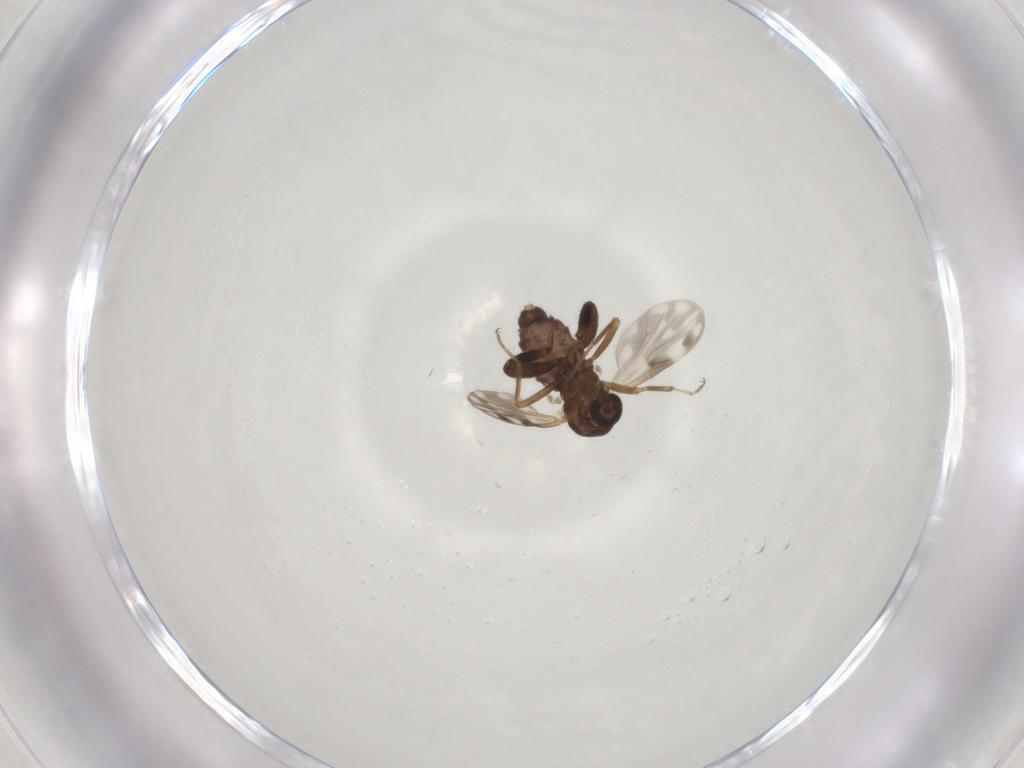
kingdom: Animalia
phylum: Arthropoda
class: Insecta
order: Diptera
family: Ceratopogonidae
